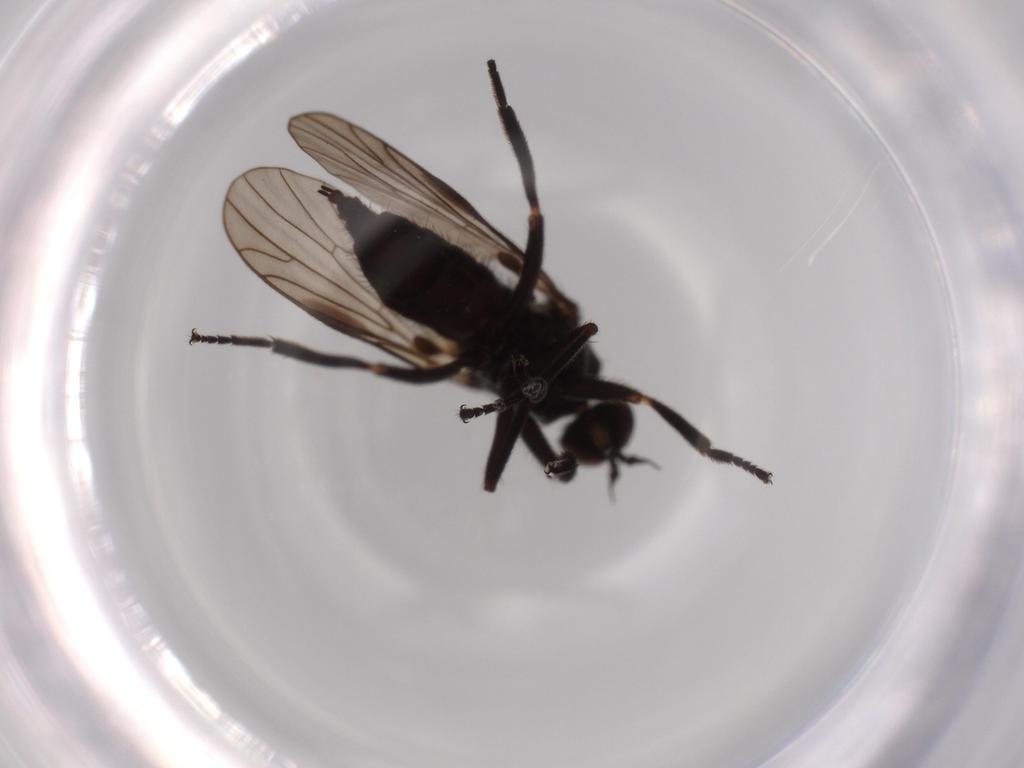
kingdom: Animalia
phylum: Arthropoda
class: Insecta
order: Diptera
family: Empididae
